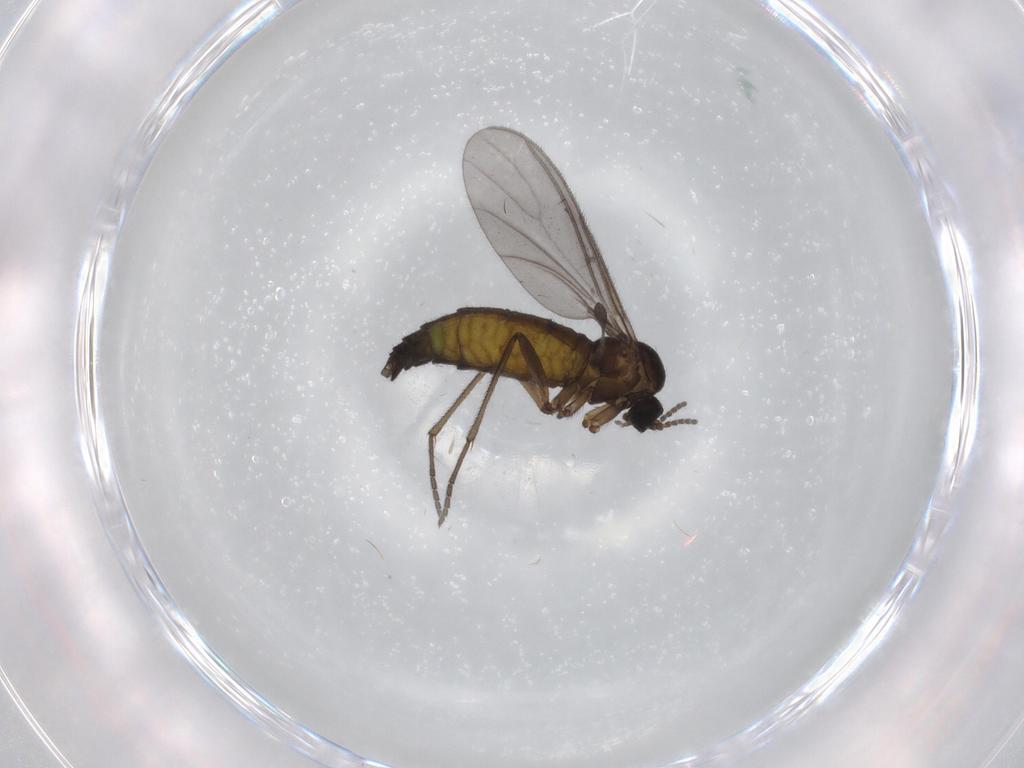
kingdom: Animalia
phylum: Arthropoda
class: Insecta
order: Diptera
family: Sciaridae
